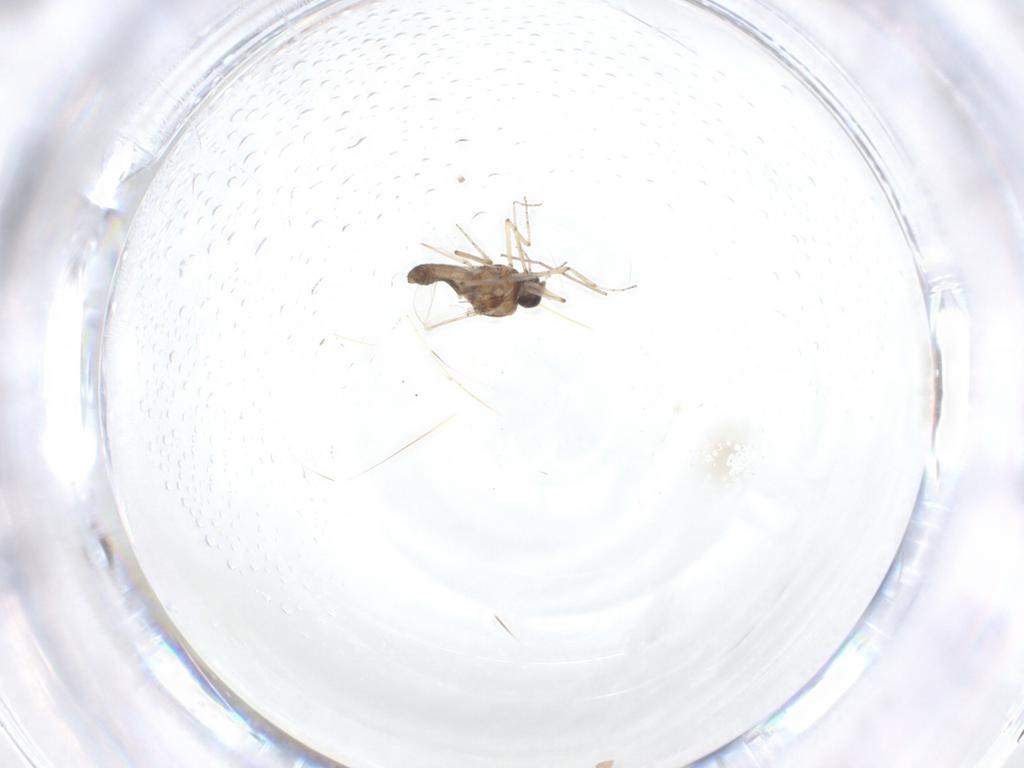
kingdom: Animalia
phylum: Arthropoda
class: Insecta
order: Diptera
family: Ceratopogonidae
